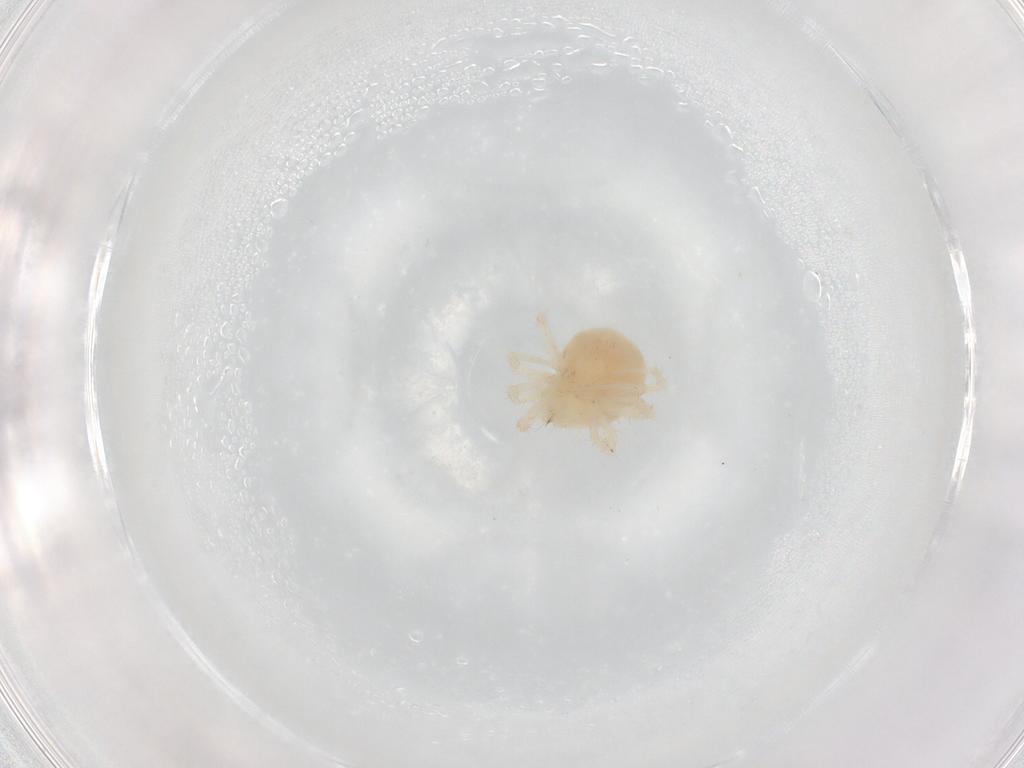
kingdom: Animalia
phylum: Arthropoda
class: Arachnida
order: Trombidiformes
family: Anystidae
